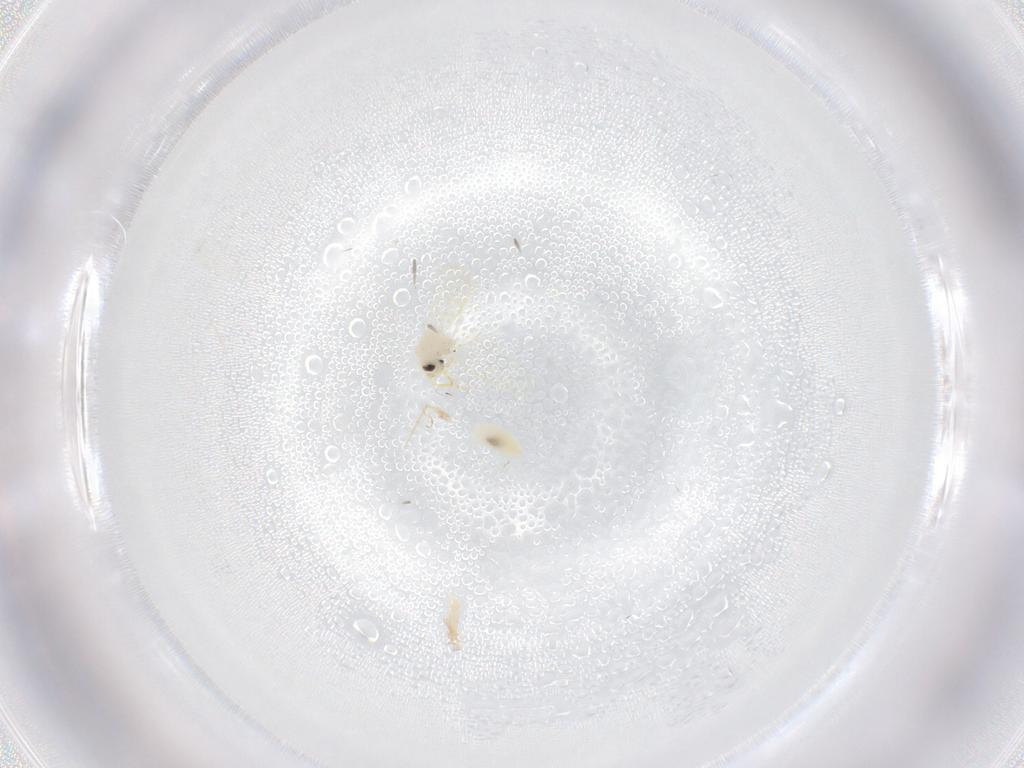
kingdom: Animalia
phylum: Arthropoda
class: Insecta
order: Hemiptera
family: Aleyrodidae
